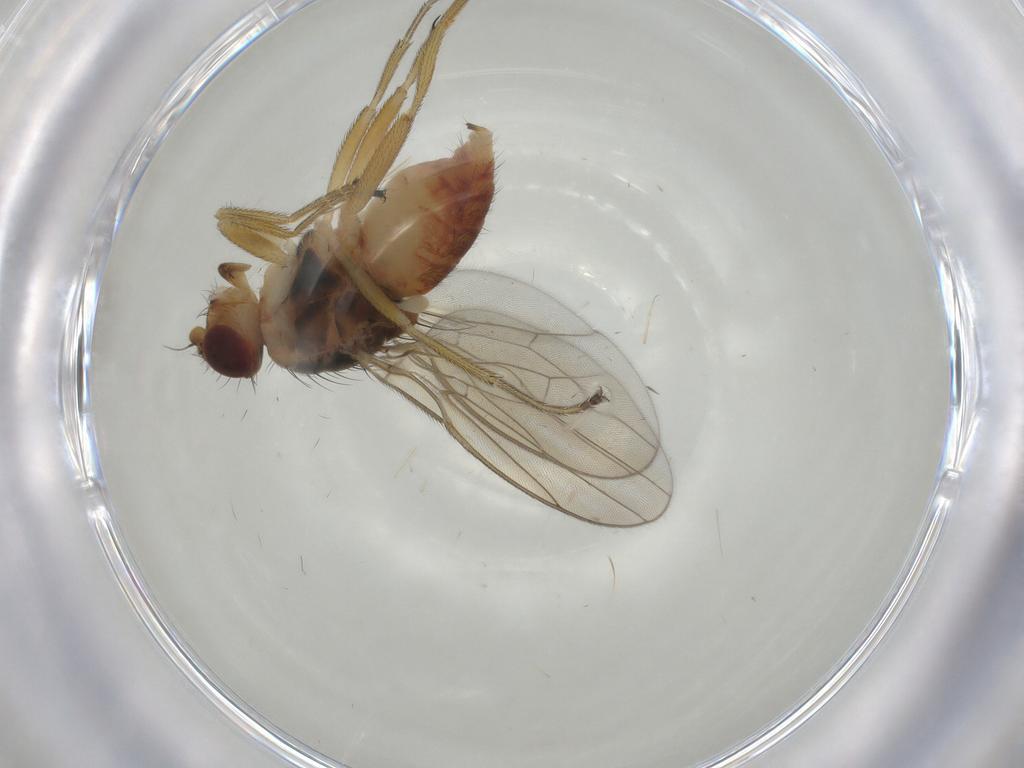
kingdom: Animalia
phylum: Arthropoda
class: Insecta
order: Diptera
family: Chloropidae
